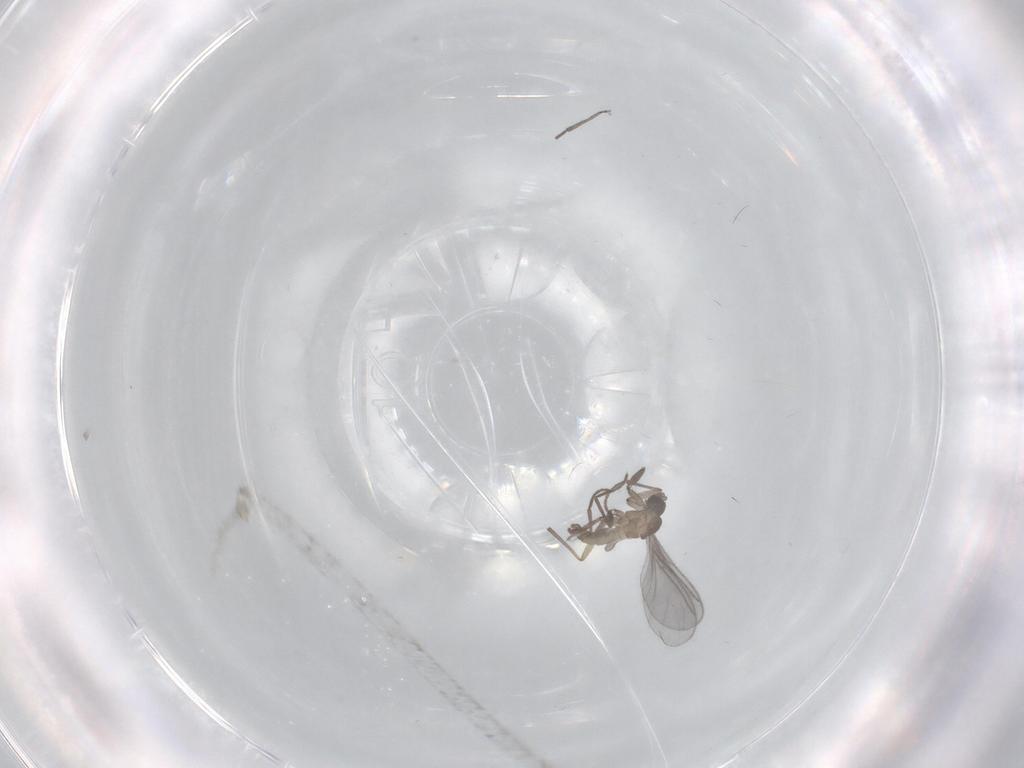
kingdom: Animalia
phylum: Arthropoda
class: Insecta
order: Diptera
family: Sciaridae
